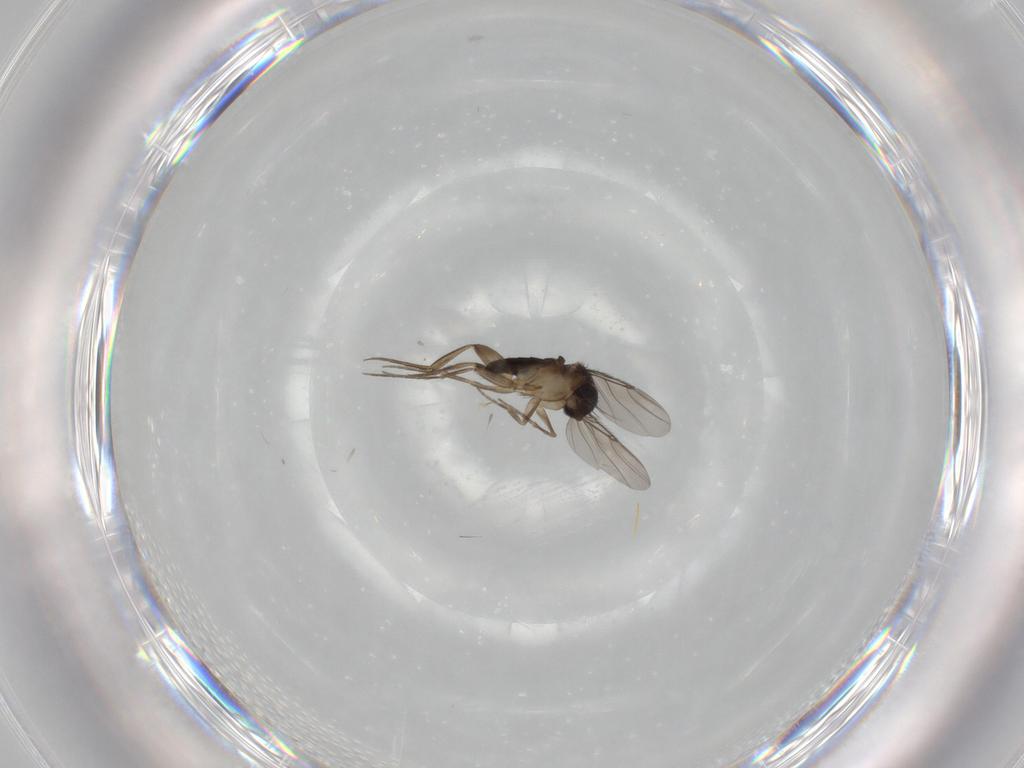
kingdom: Animalia
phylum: Arthropoda
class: Insecta
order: Diptera
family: Phoridae
